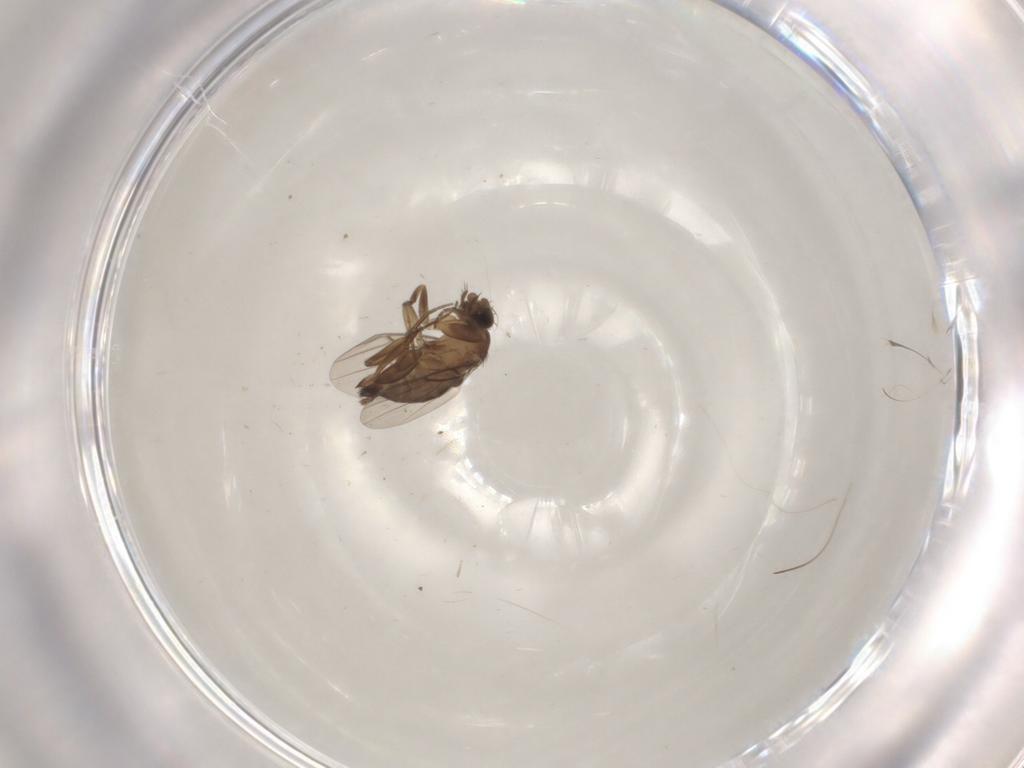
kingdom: Animalia
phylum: Arthropoda
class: Insecta
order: Diptera
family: Phoridae
